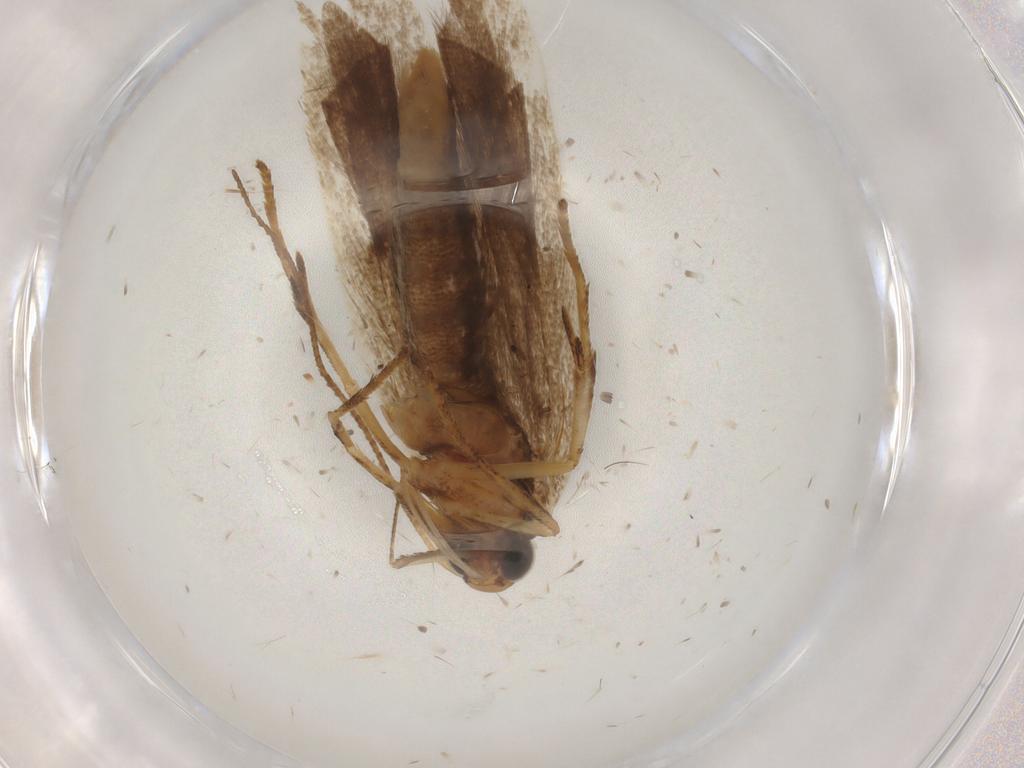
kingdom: Animalia
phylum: Arthropoda
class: Insecta
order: Lepidoptera
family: Gelechiidae
